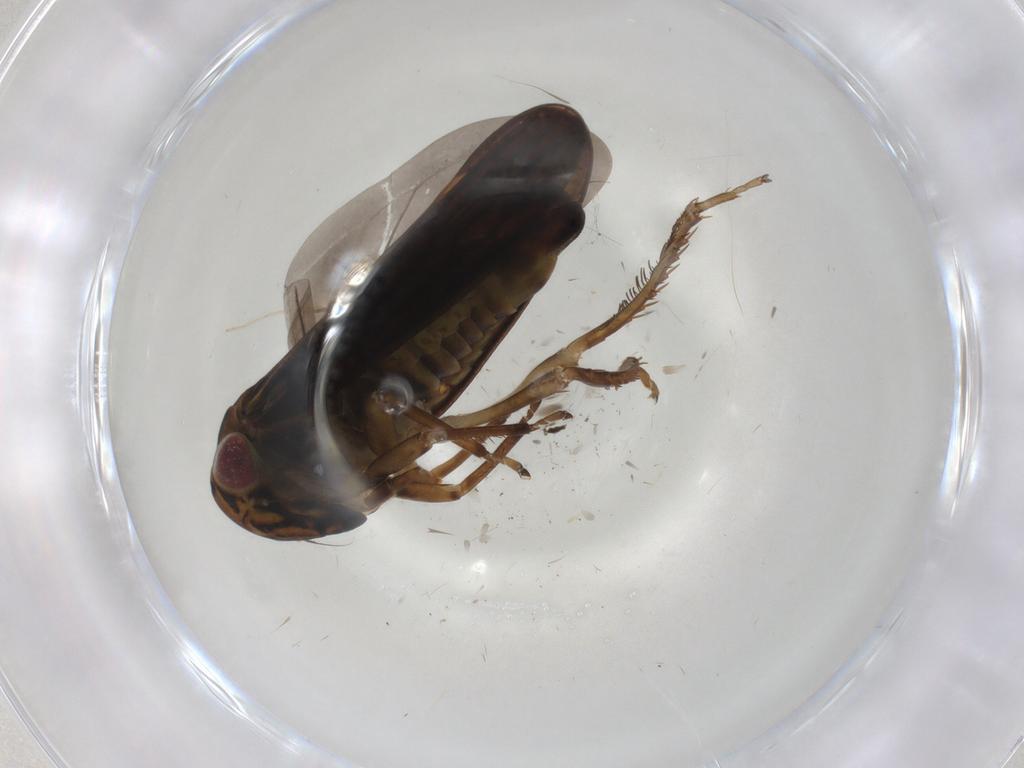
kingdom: Animalia
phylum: Arthropoda
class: Insecta
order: Hemiptera
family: Cicadellidae
